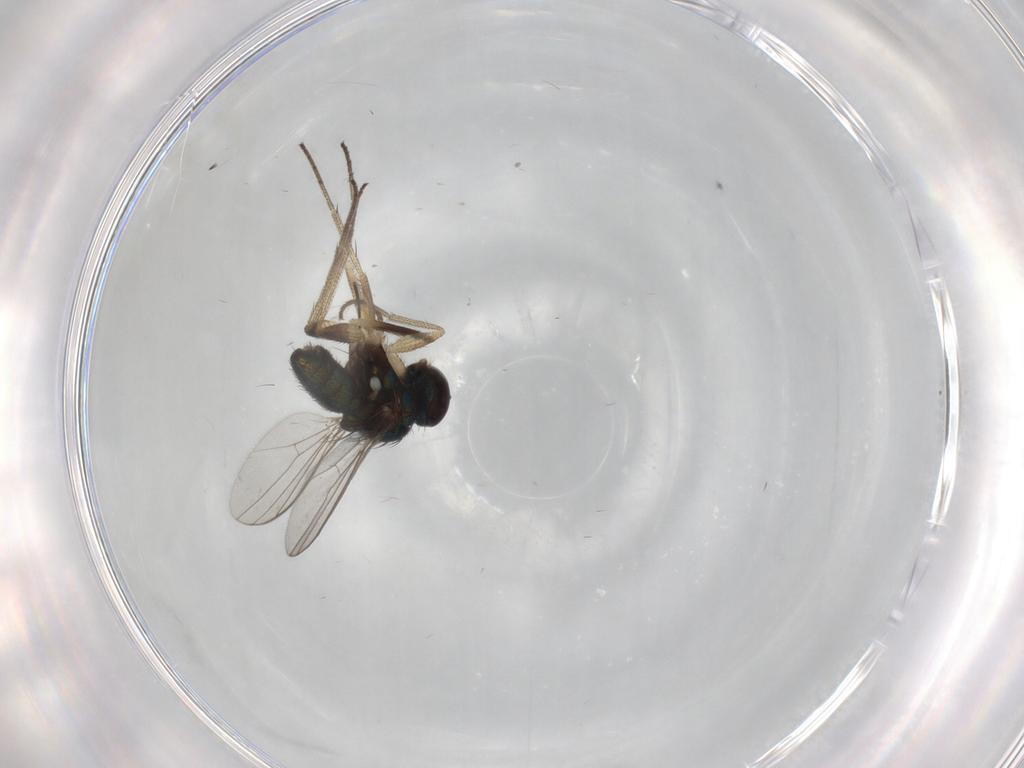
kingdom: Animalia
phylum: Arthropoda
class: Insecta
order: Diptera
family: Chironomidae
